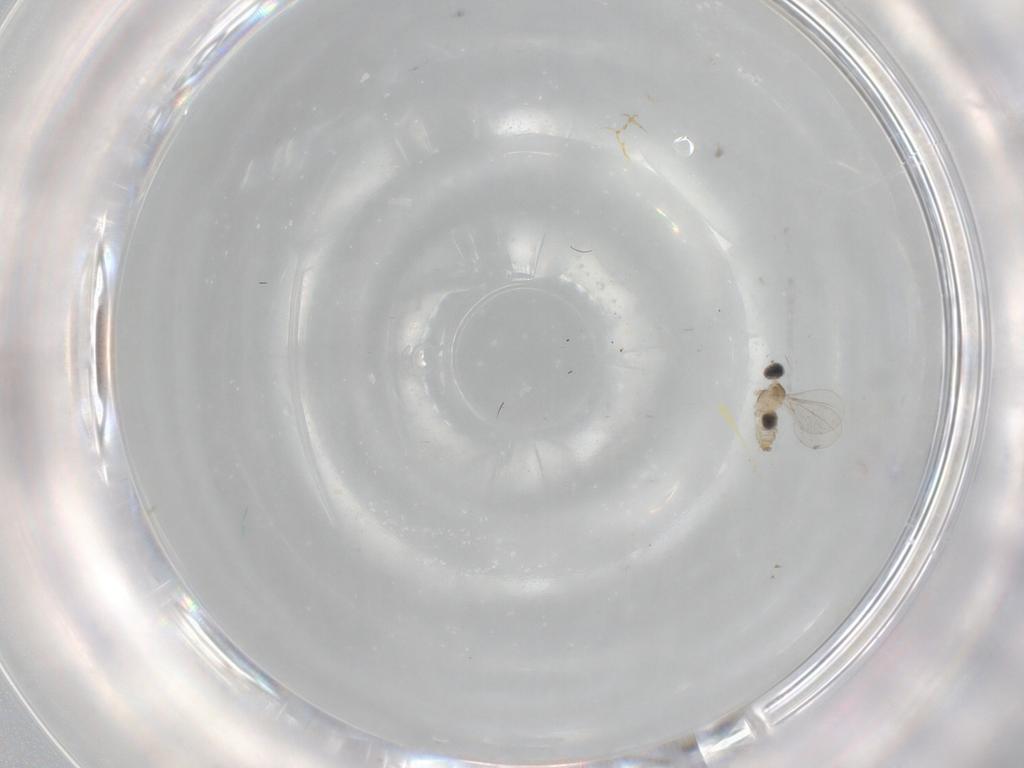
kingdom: Animalia
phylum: Arthropoda
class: Insecta
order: Diptera
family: Cecidomyiidae
